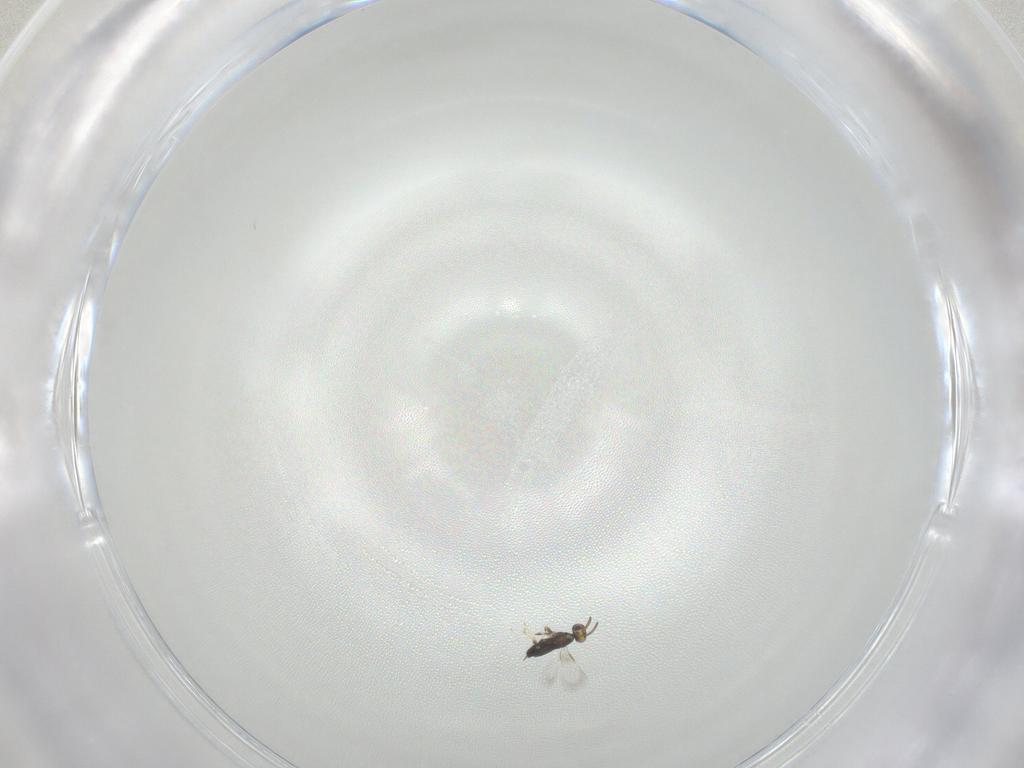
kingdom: Animalia
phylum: Arthropoda
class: Insecta
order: Hymenoptera
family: Signiphoridae
